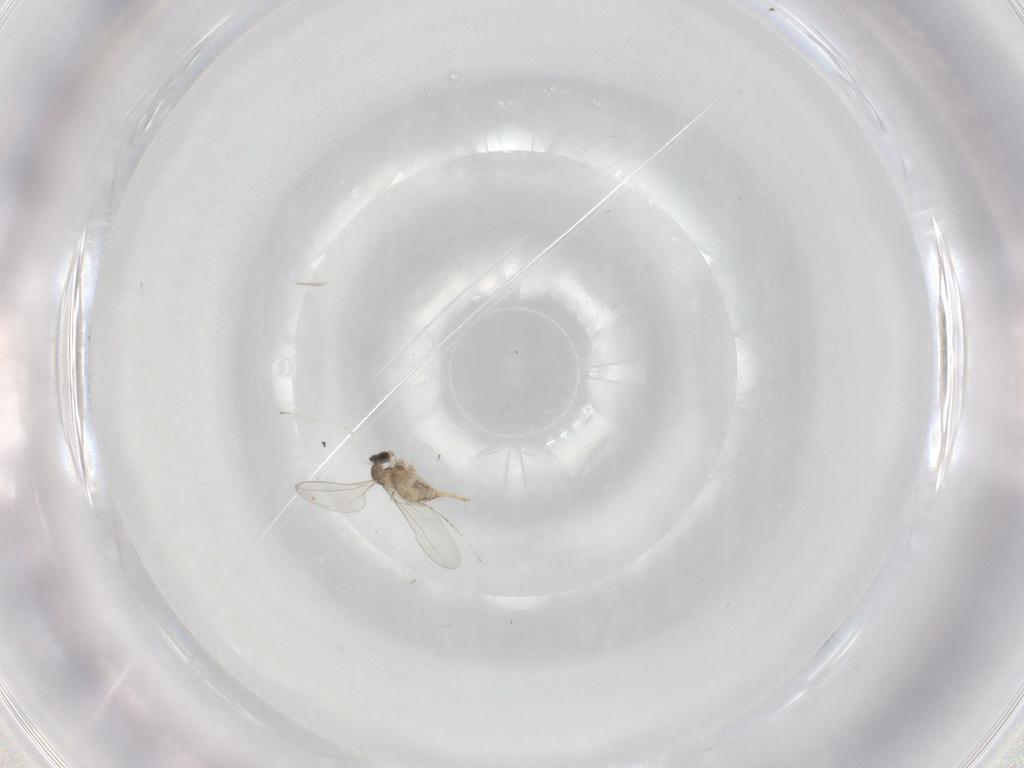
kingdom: Animalia
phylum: Arthropoda
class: Insecta
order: Diptera
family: Cecidomyiidae
